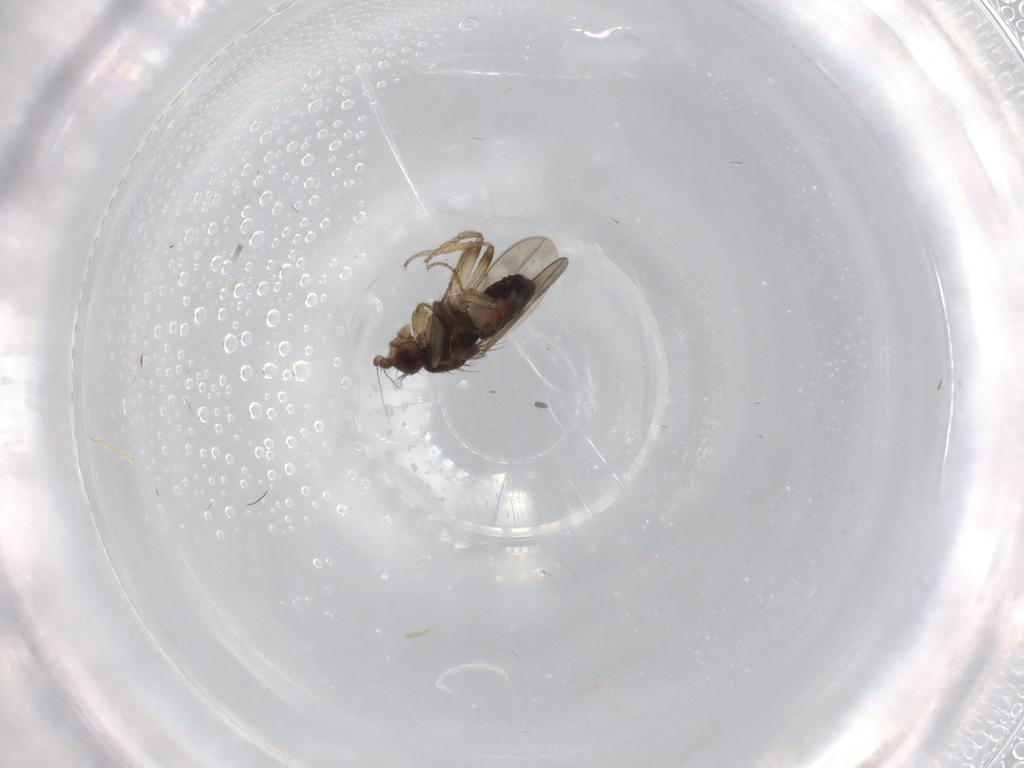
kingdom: Animalia
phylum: Arthropoda
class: Insecta
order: Diptera
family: Sphaeroceridae
